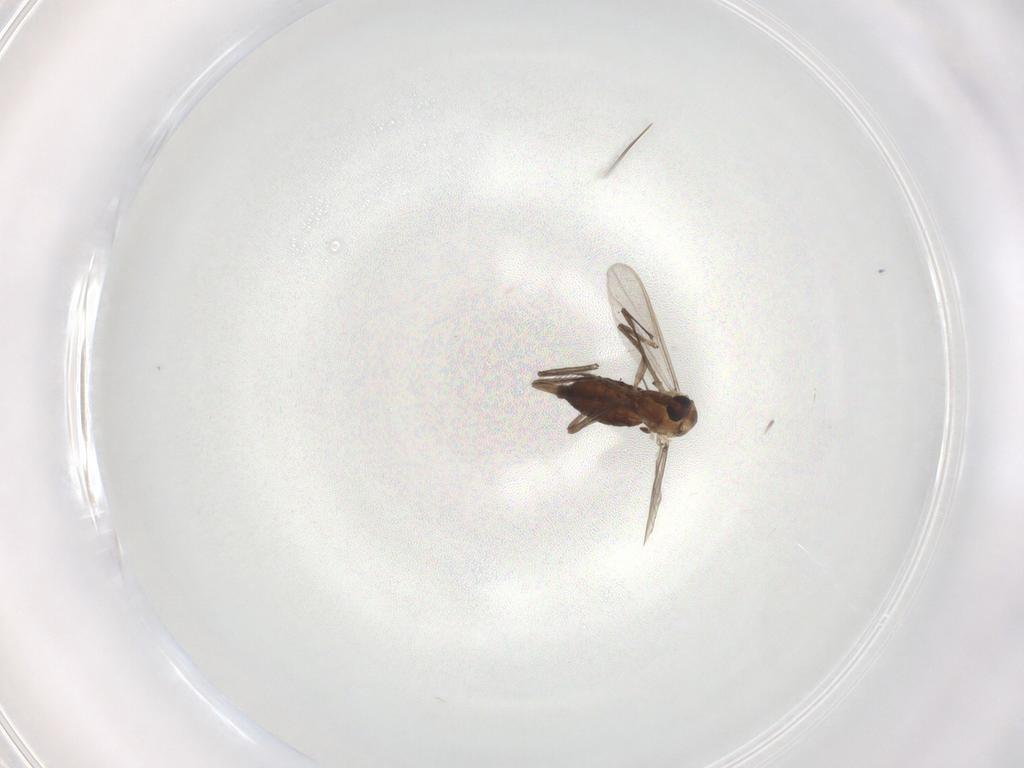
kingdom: Animalia
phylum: Arthropoda
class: Insecta
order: Diptera
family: Chironomidae
